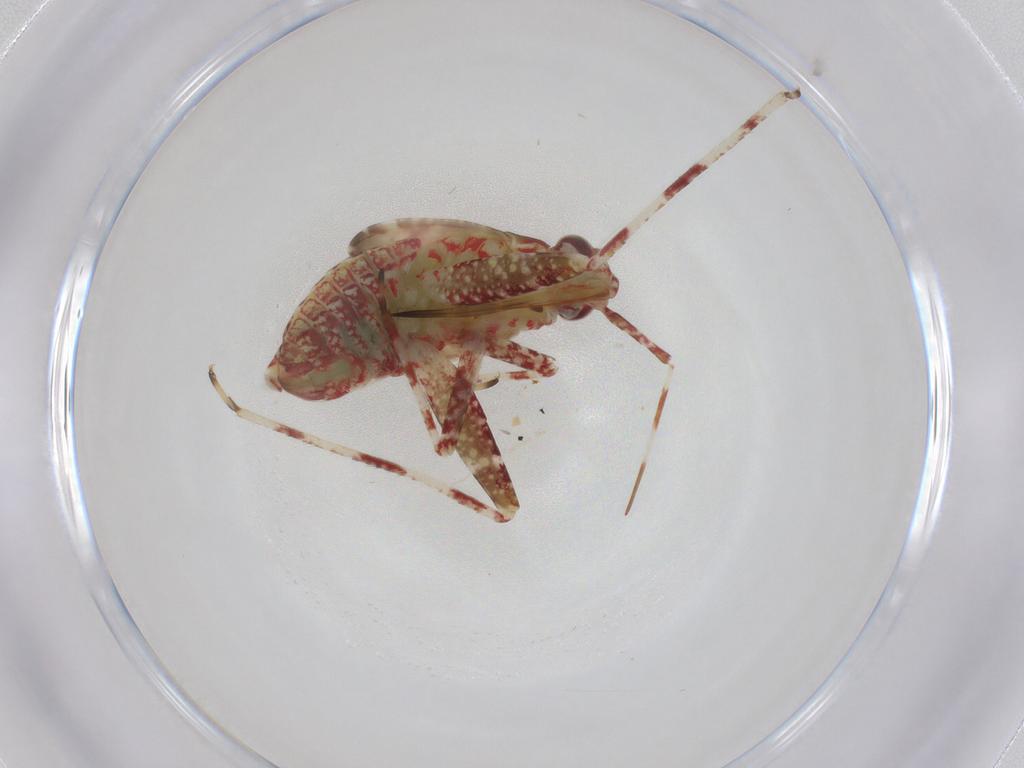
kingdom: Animalia
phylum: Arthropoda
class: Insecta
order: Hemiptera
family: Miridae
